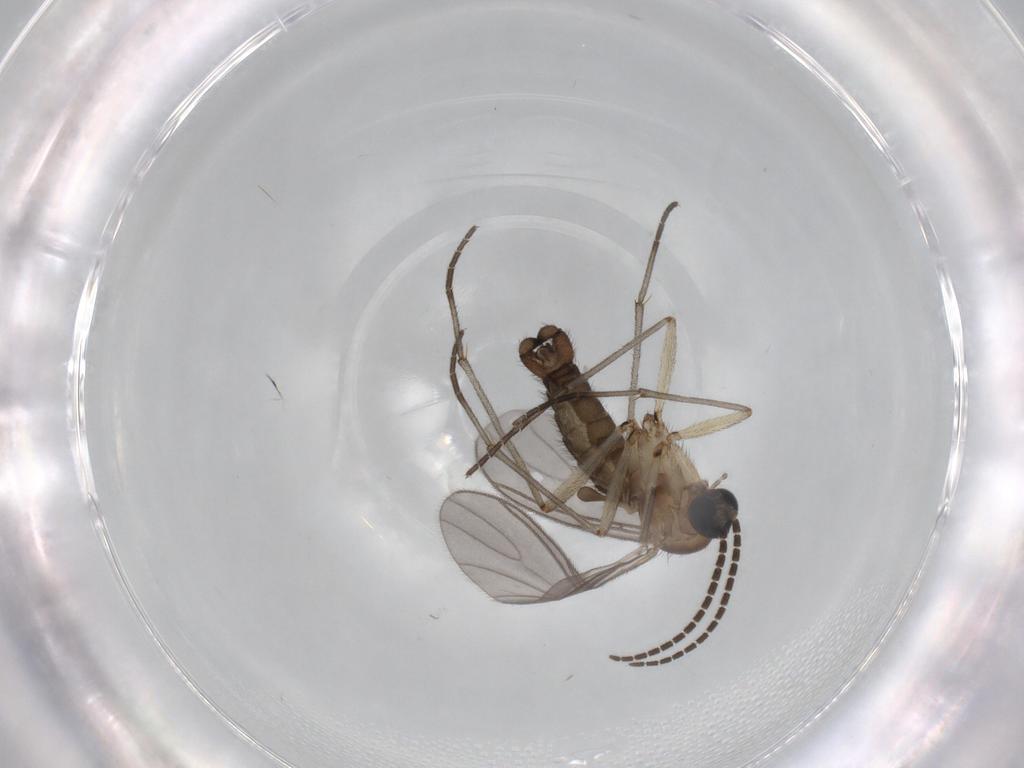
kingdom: Animalia
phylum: Arthropoda
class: Insecta
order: Diptera
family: Sciaridae
